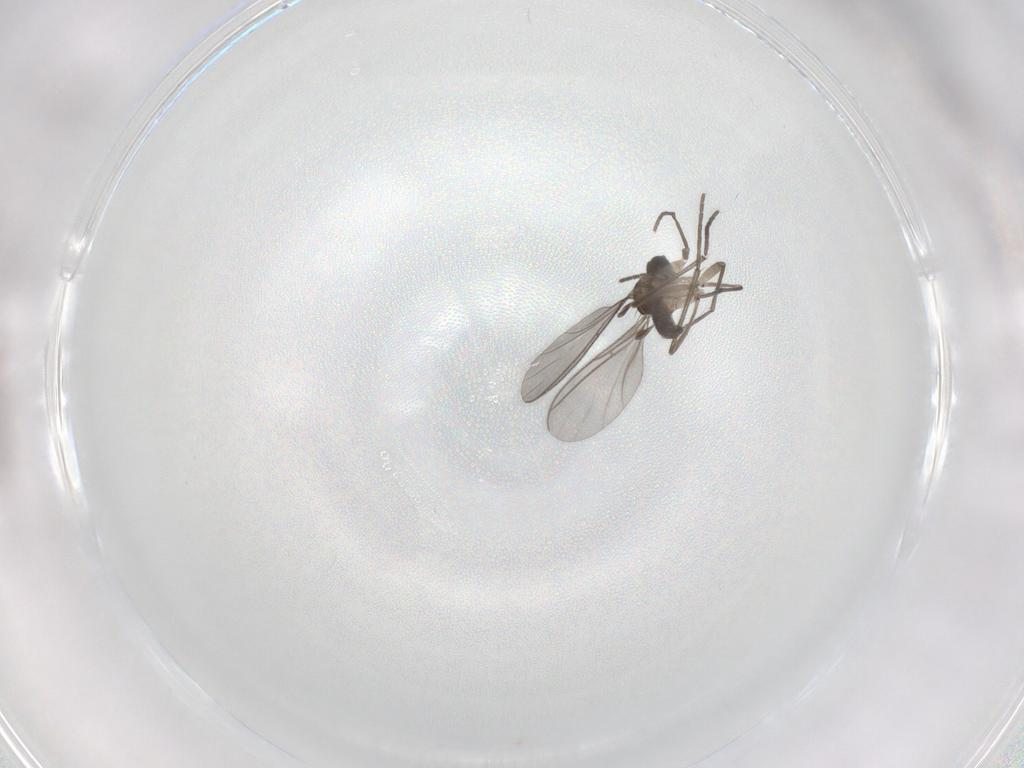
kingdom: Animalia
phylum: Arthropoda
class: Insecta
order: Diptera
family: Sciaridae
